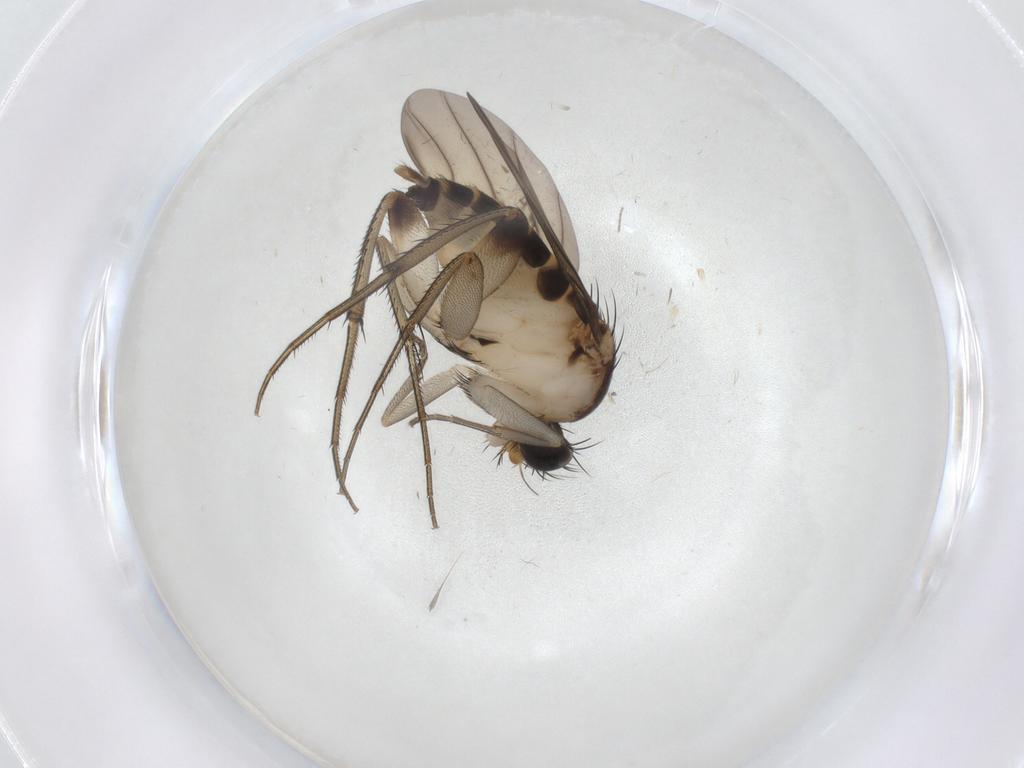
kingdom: Animalia
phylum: Arthropoda
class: Insecta
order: Diptera
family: Phoridae
